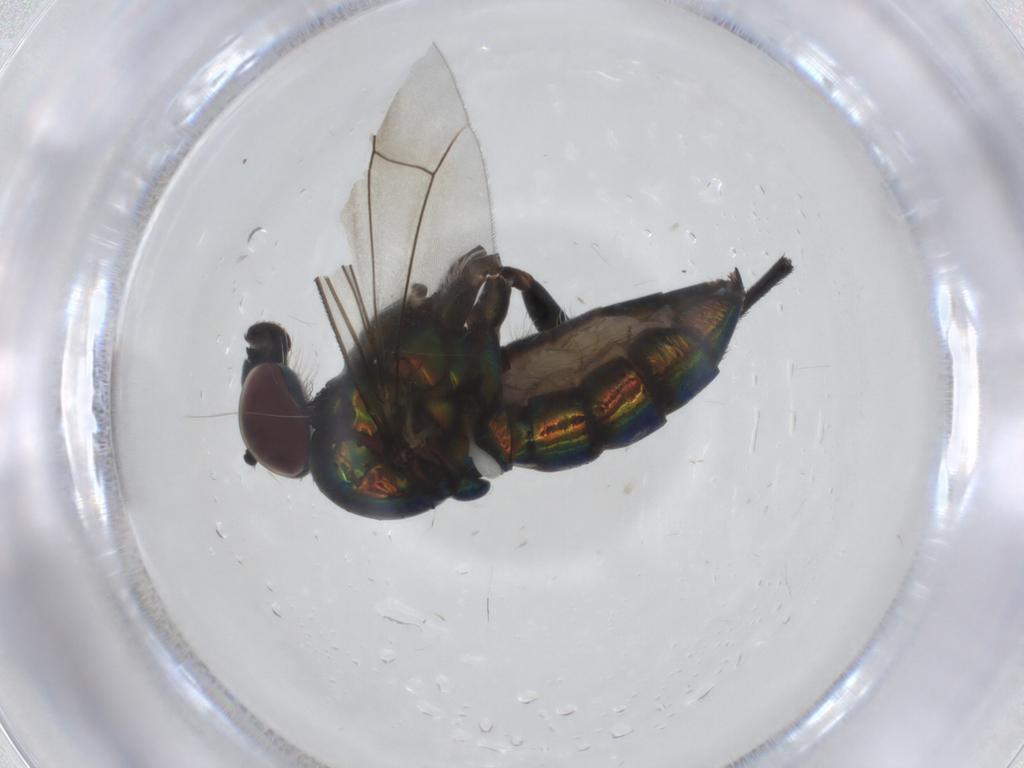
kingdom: Animalia
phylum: Arthropoda
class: Insecta
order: Diptera
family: Dolichopodidae
